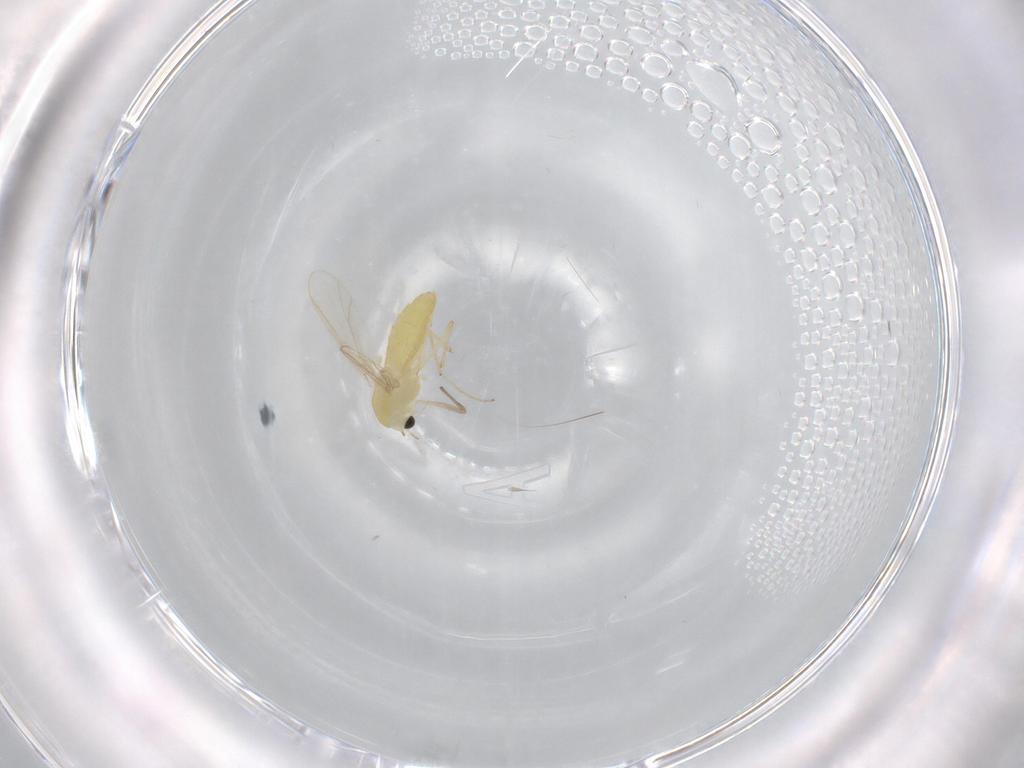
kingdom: Animalia
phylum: Arthropoda
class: Insecta
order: Diptera
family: Chironomidae
